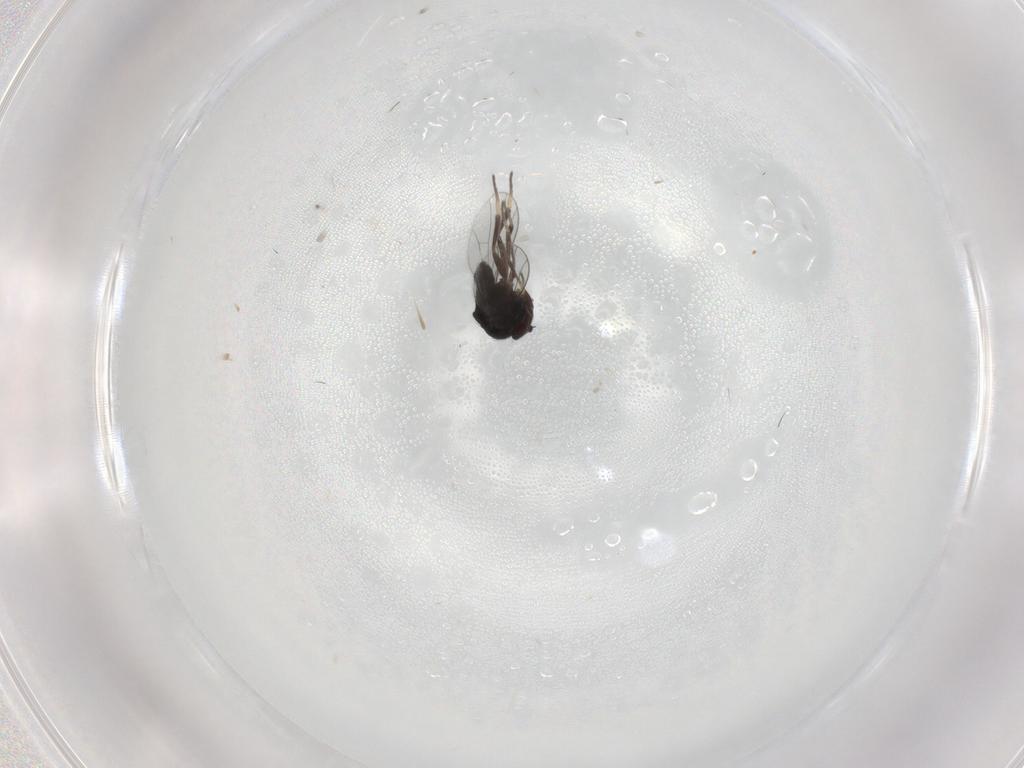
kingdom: Animalia
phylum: Arthropoda
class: Insecta
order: Diptera
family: Dolichopodidae
